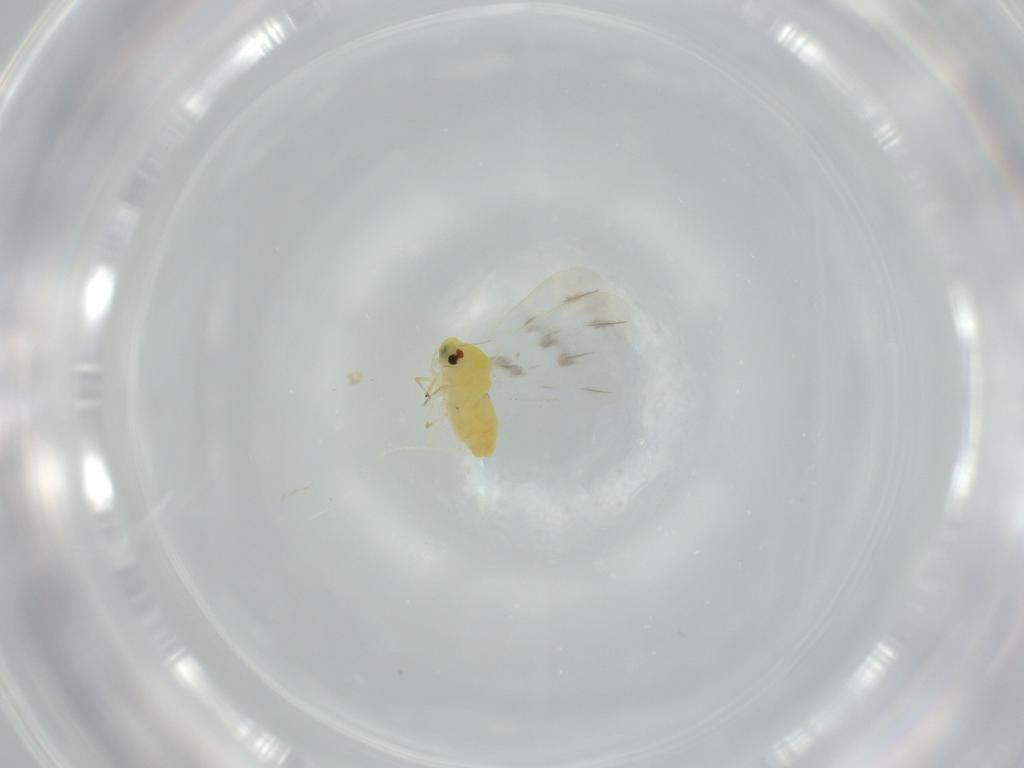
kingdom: Animalia
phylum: Arthropoda
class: Insecta
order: Hemiptera
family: Aleyrodidae
